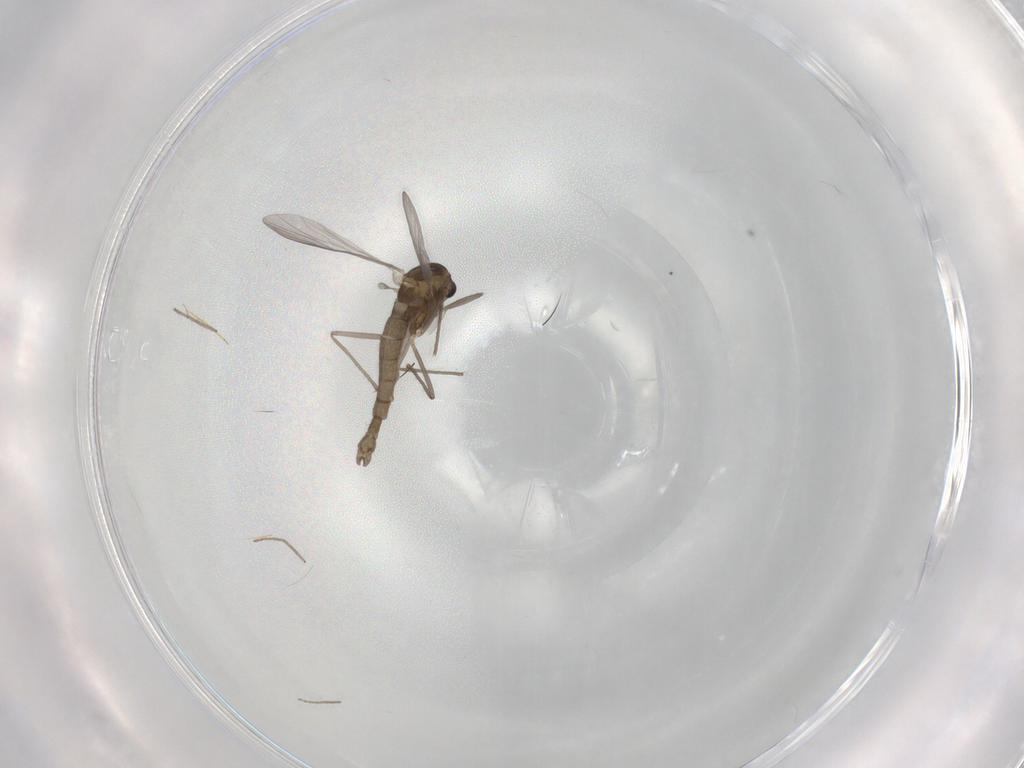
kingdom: Animalia
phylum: Arthropoda
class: Insecta
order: Diptera
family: Chironomidae
